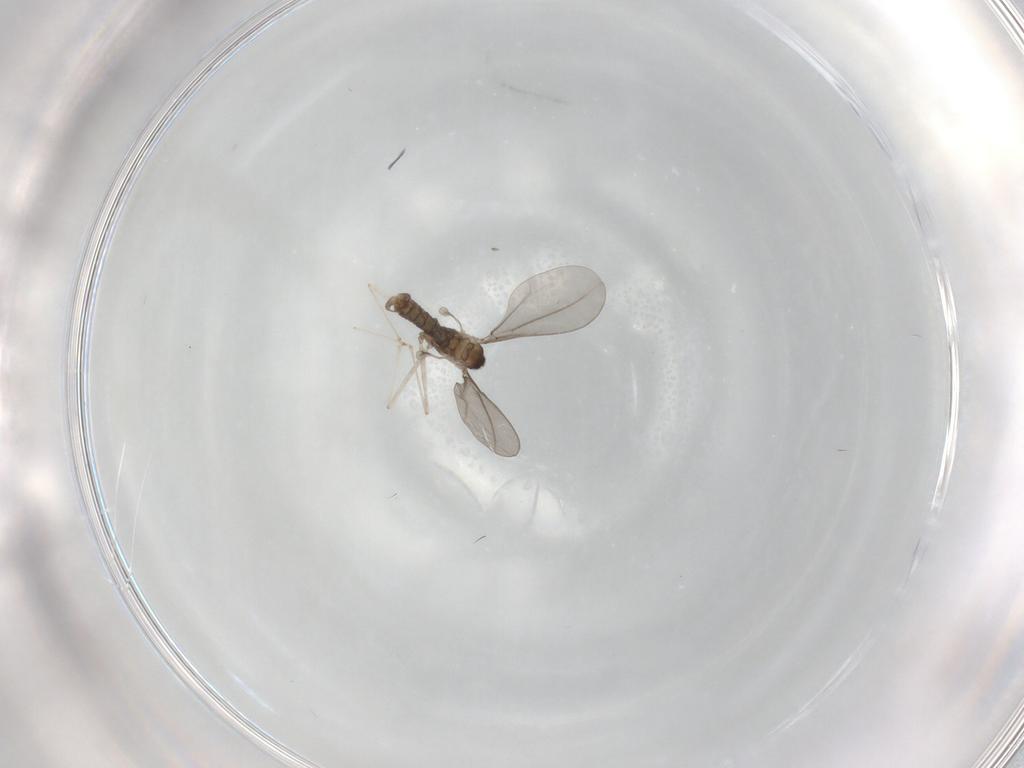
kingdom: Animalia
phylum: Arthropoda
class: Insecta
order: Diptera
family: Cecidomyiidae
